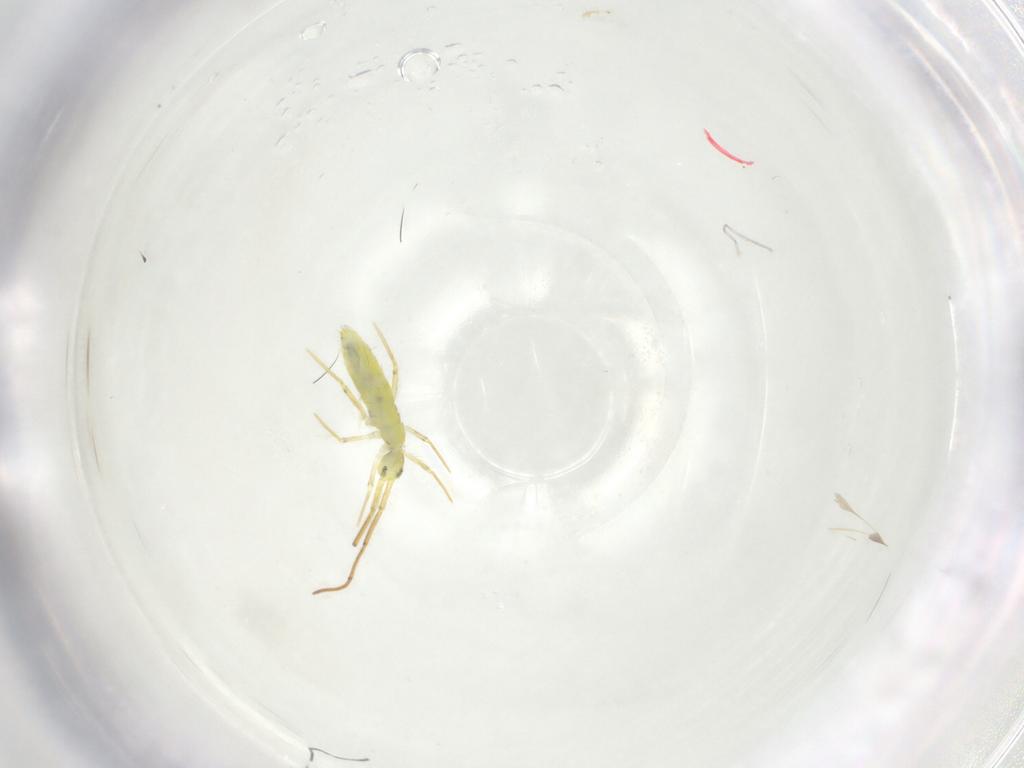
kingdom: Animalia
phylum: Arthropoda
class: Collembola
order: Entomobryomorpha
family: Entomobryidae
